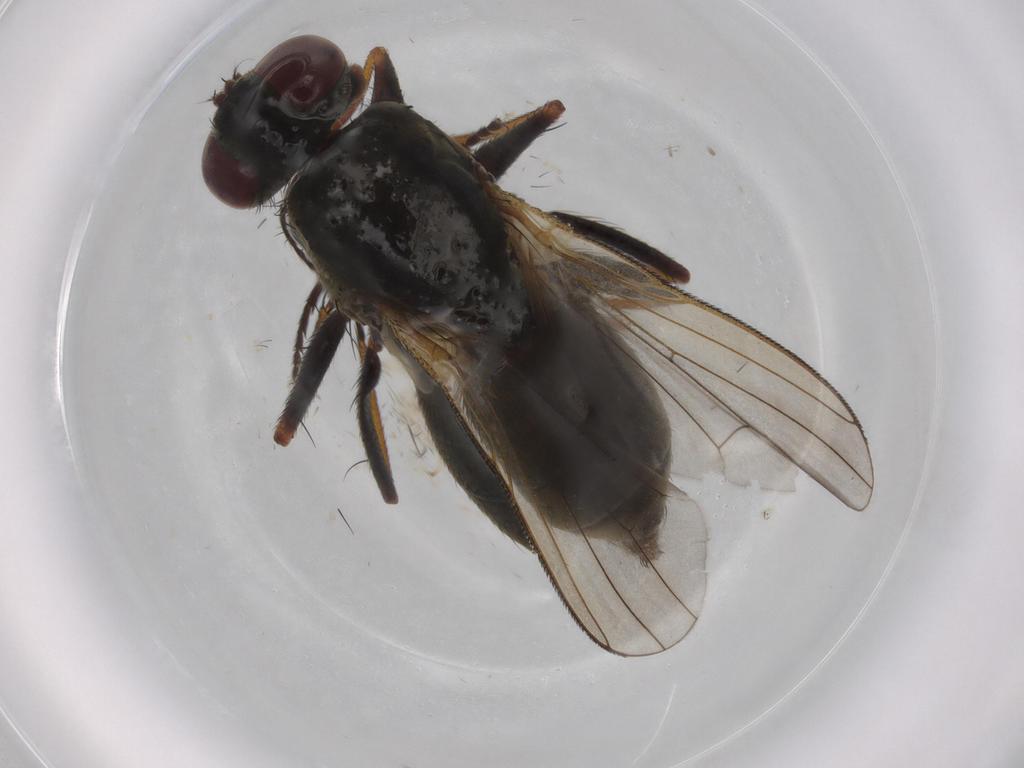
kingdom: Animalia
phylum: Arthropoda
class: Insecta
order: Diptera
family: Muscidae
